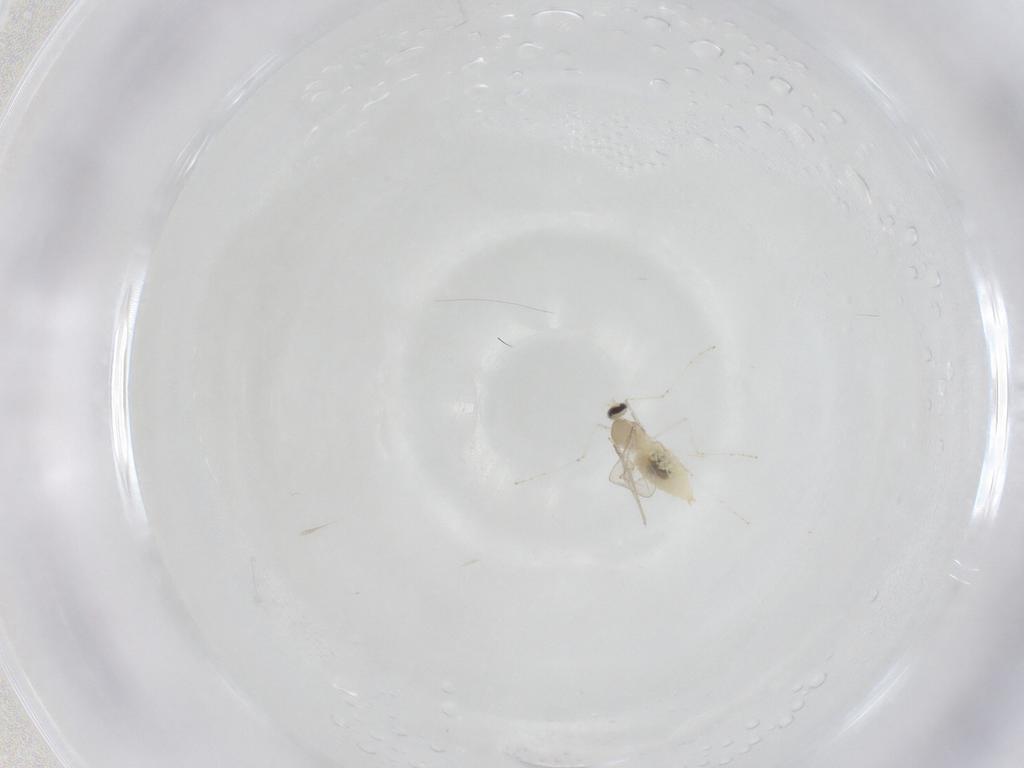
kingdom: Animalia
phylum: Arthropoda
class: Insecta
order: Diptera
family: Cecidomyiidae
